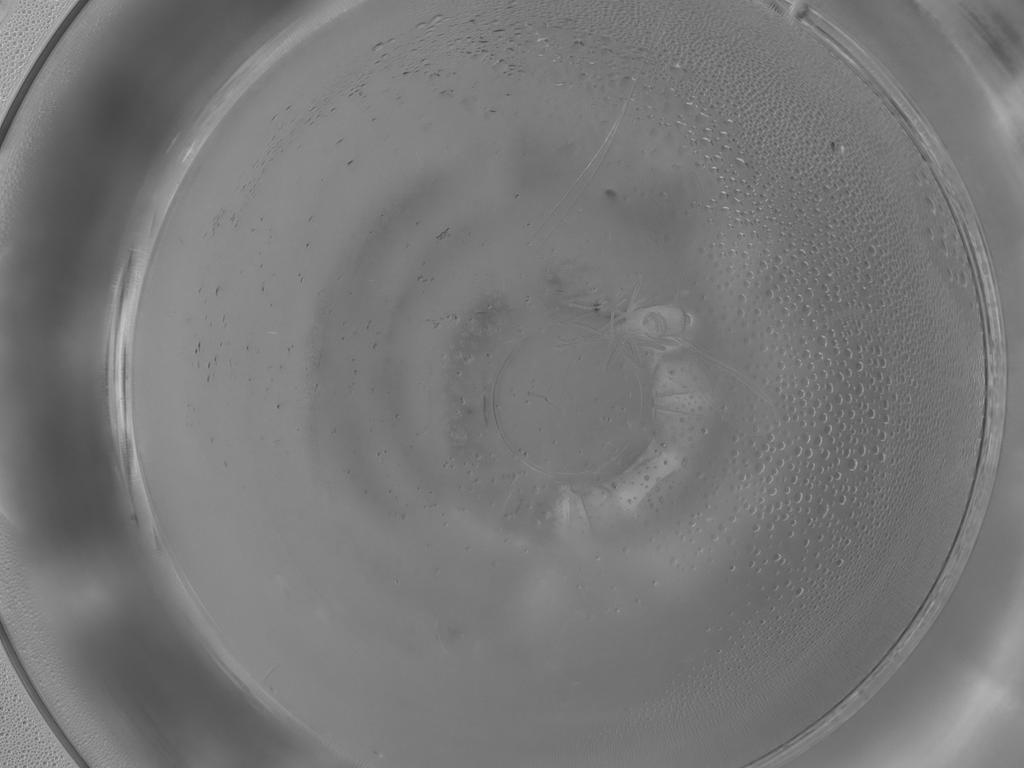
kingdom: Animalia
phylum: Arthropoda
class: Insecta
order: Diptera
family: Sciaridae
